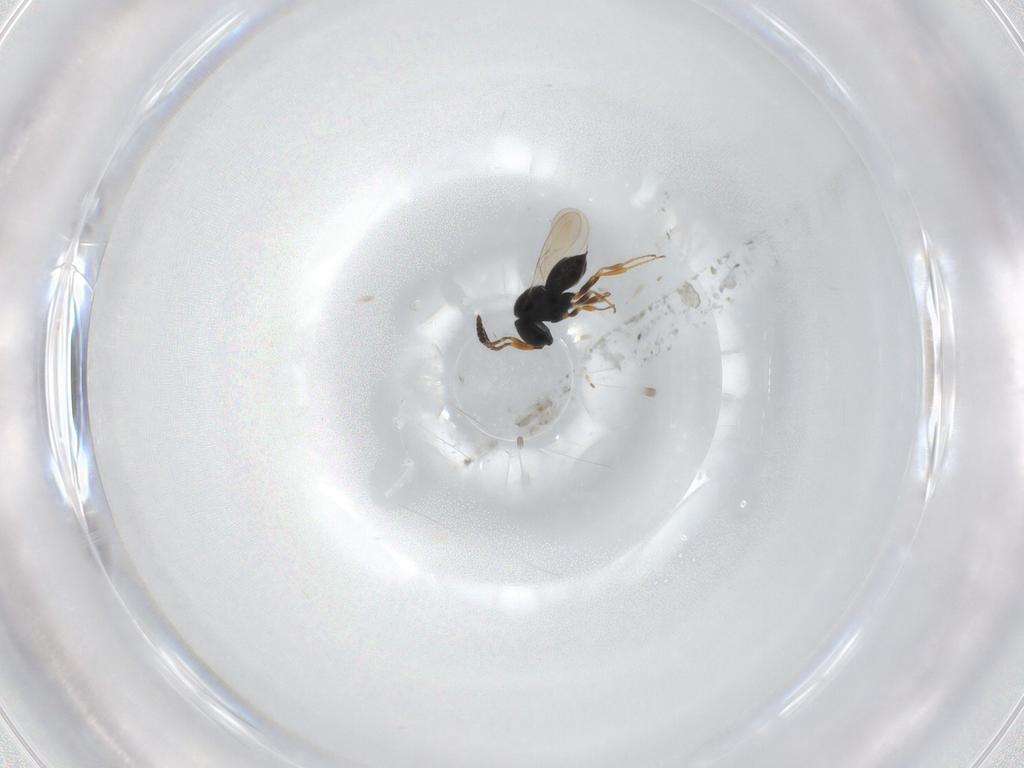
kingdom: Animalia
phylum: Arthropoda
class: Insecta
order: Hymenoptera
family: Scelionidae
